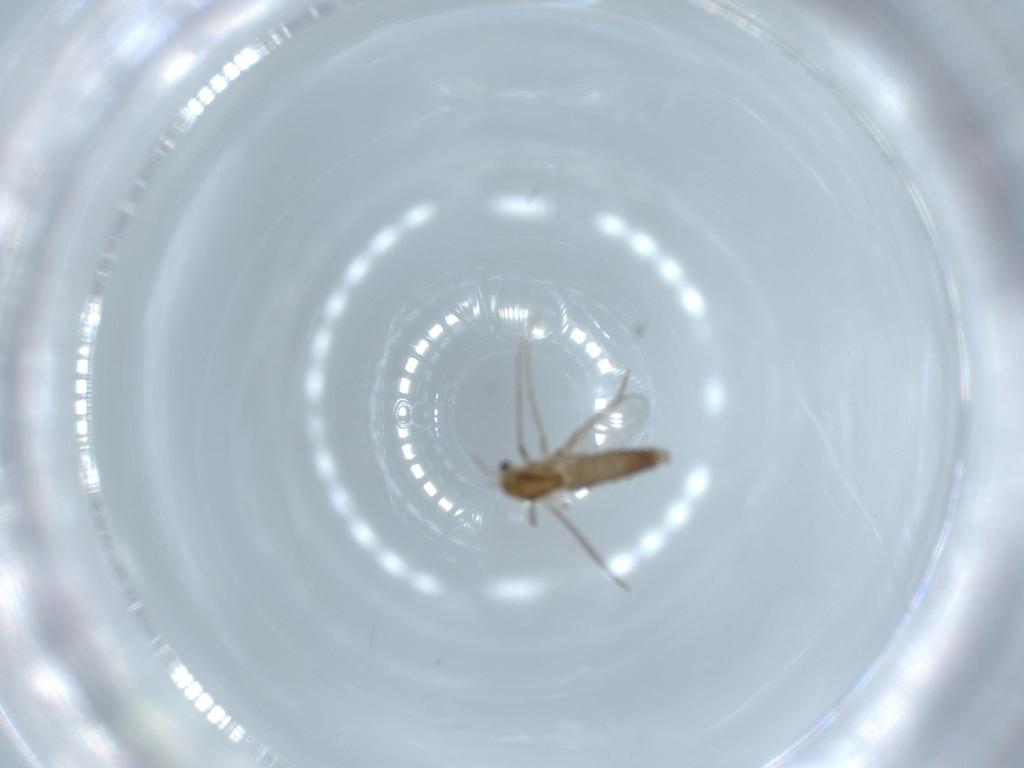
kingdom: Animalia
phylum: Arthropoda
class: Insecta
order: Diptera
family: Chironomidae
